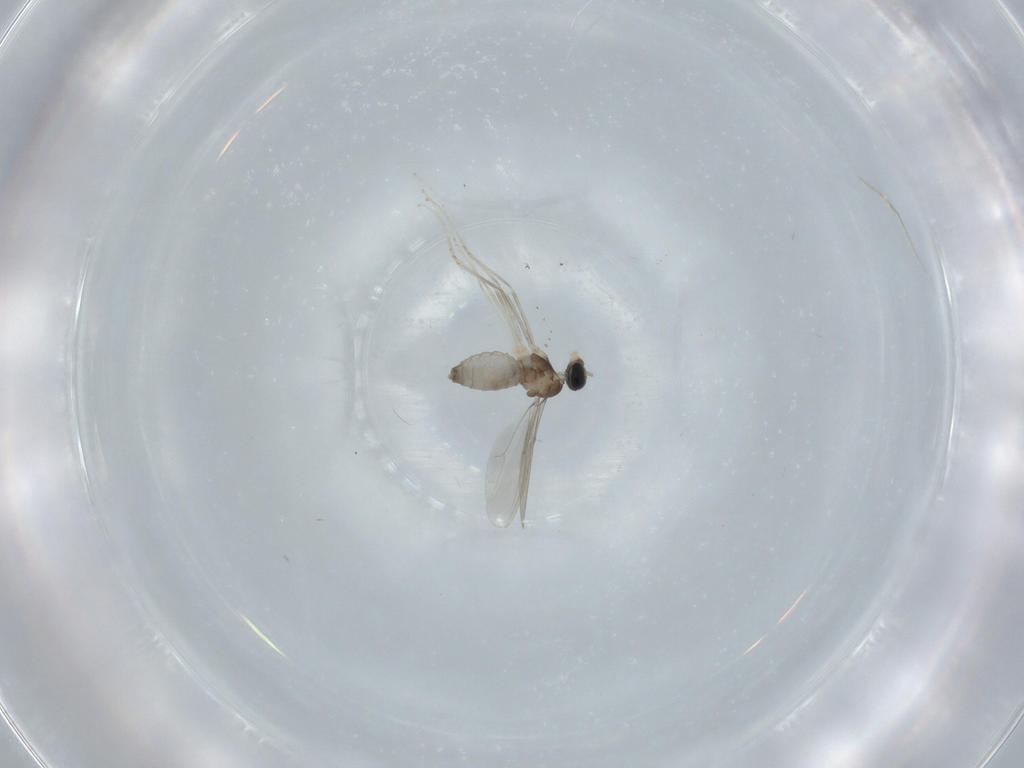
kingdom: Animalia
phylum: Arthropoda
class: Insecta
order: Diptera
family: Cecidomyiidae
